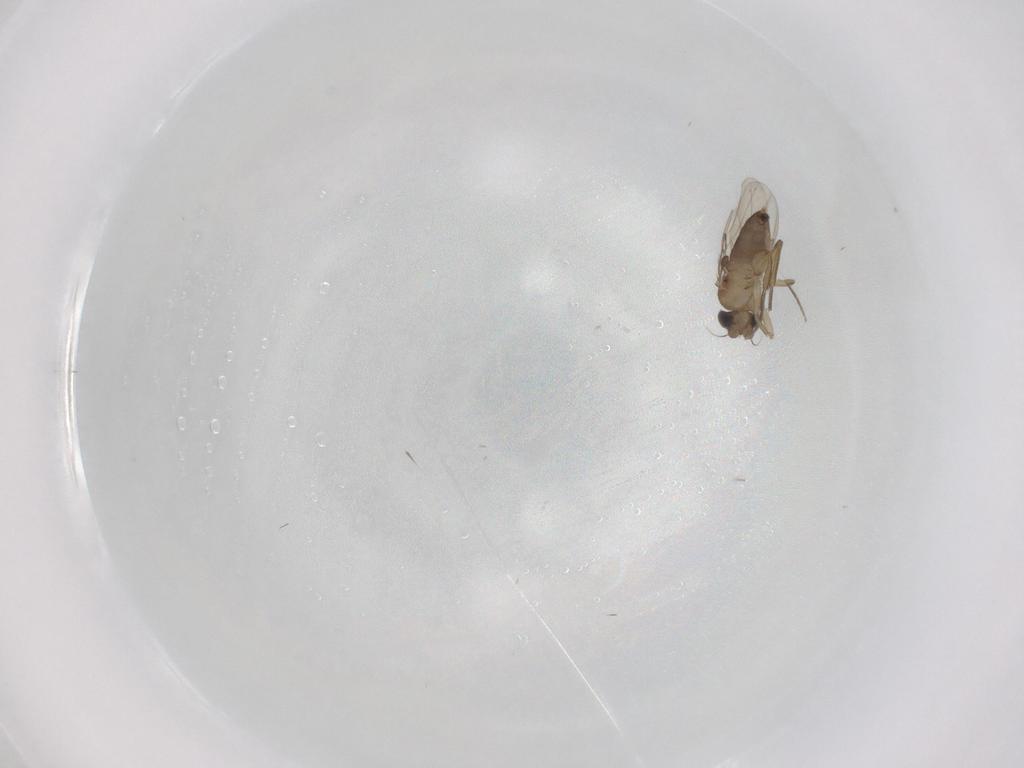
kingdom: Animalia
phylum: Arthropoda
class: Insecta
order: Diptera
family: Phoridae
